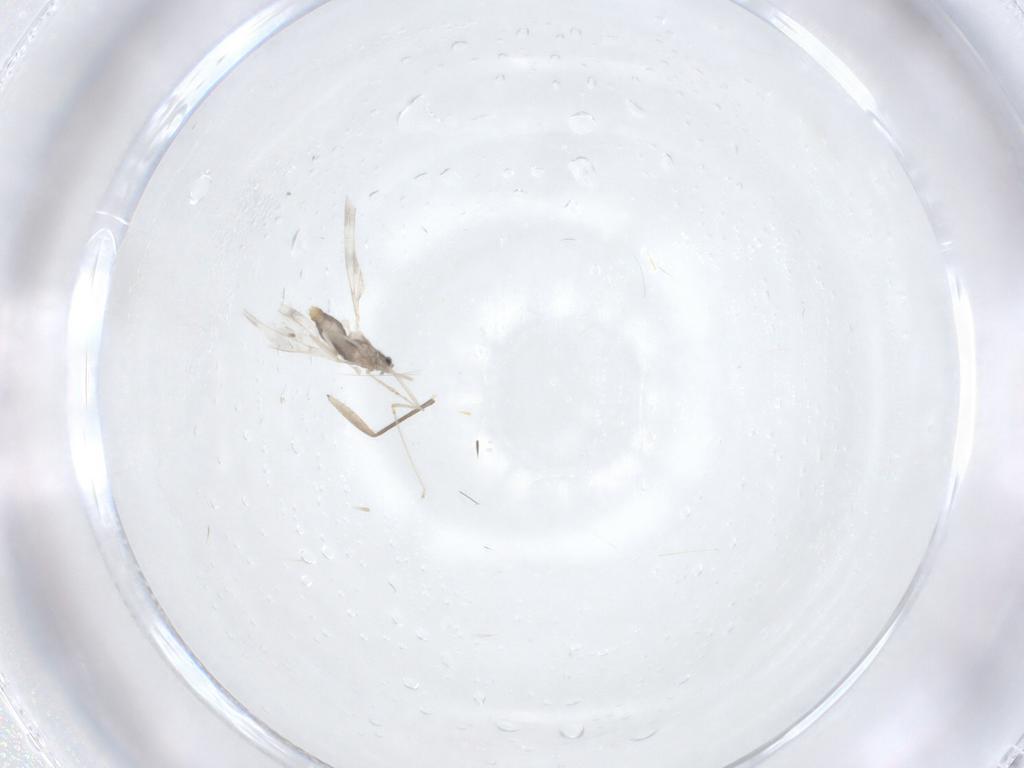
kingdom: Animalia
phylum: Arthropoda
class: Insecta
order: Diptera
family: Sciaridae
